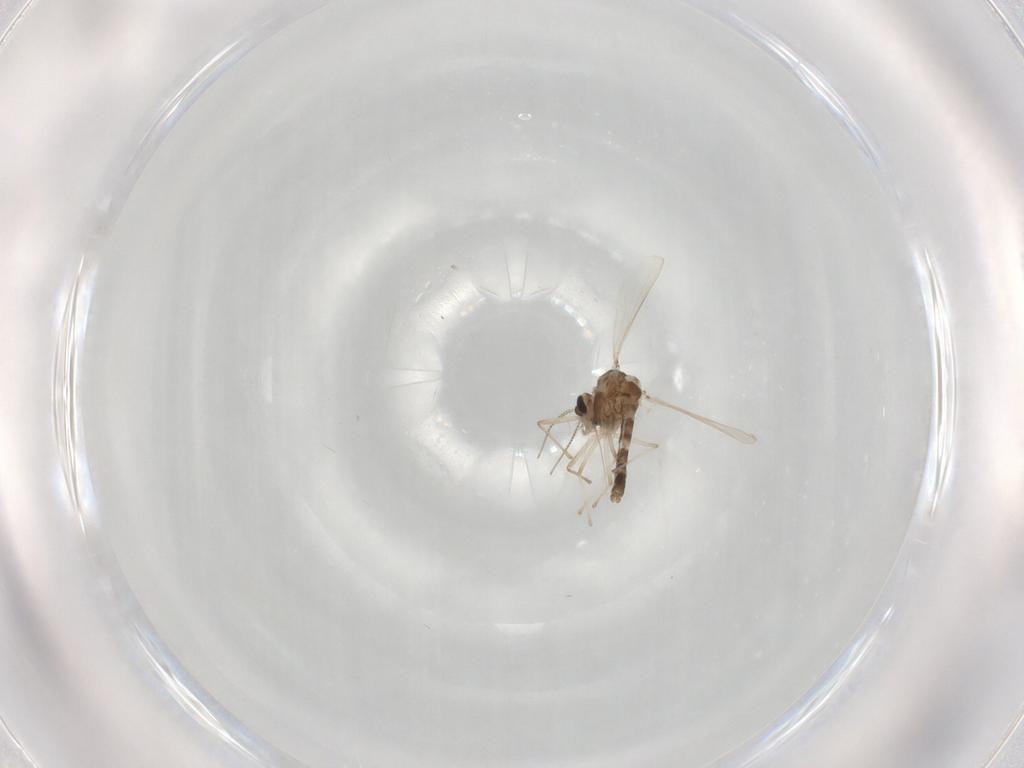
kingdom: Animalia
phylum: Arthropoda
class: Insecta
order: Diptera
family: Chironomidae
